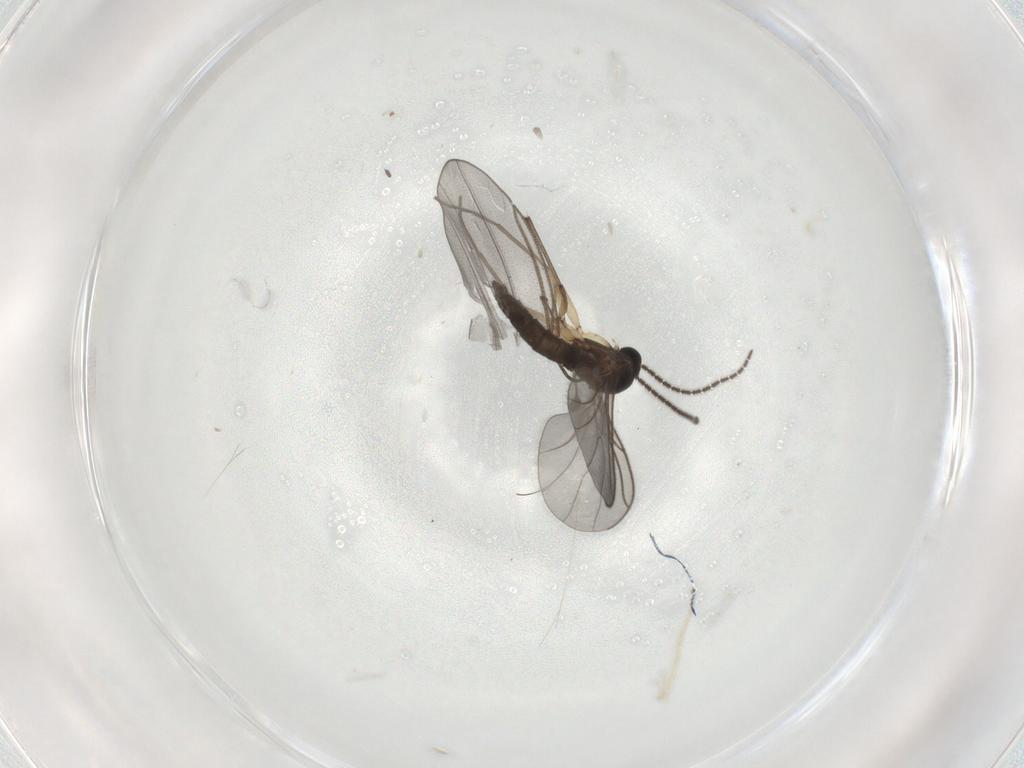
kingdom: Animalia
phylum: Arthropoda
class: Insecta
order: Diptera
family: Sciaridae
